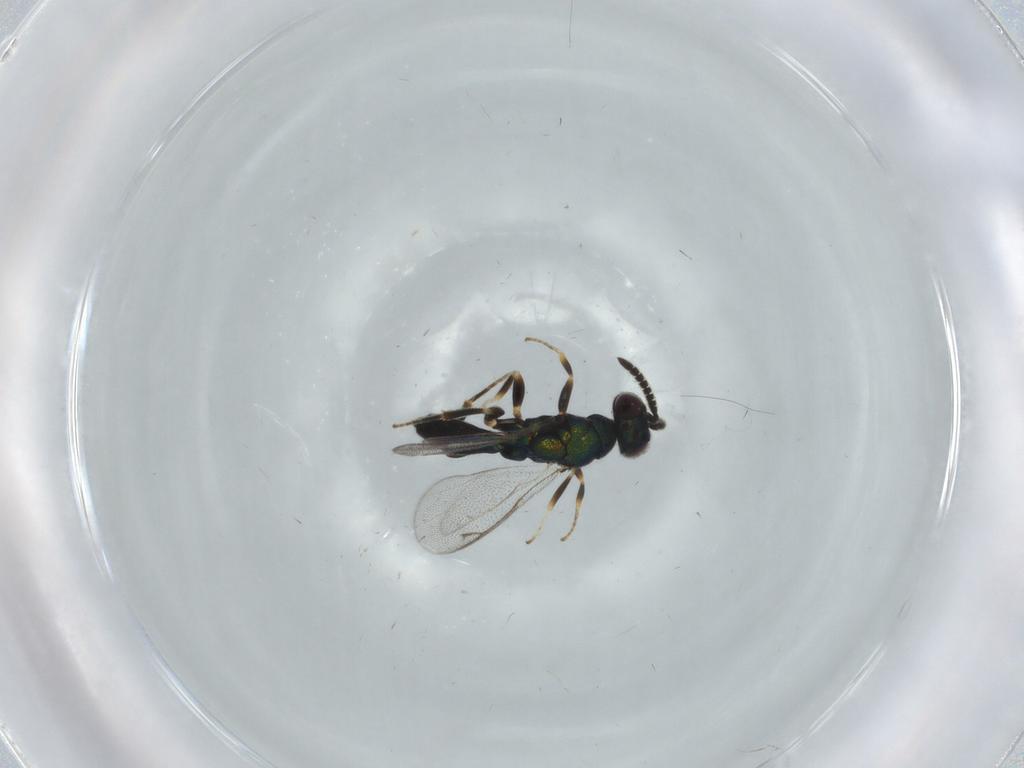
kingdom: Animalia
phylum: Arthropoda
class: Insecta
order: Hymenoptera
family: Cleonyminae
